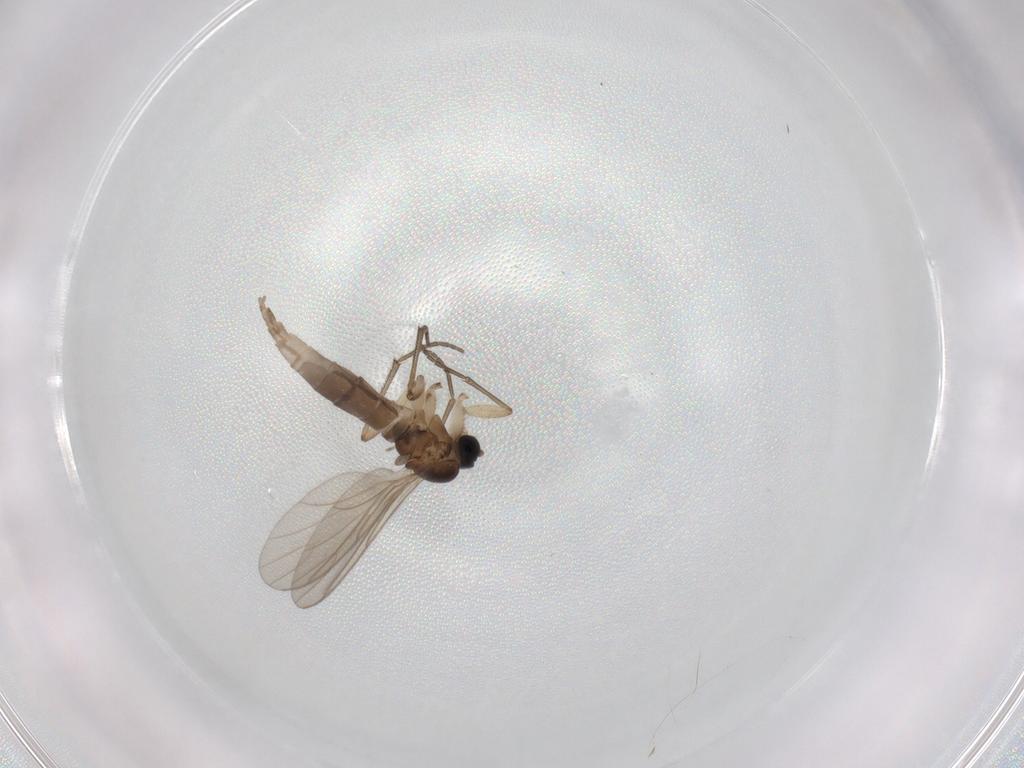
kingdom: Animalia
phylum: Arthropoda
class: Insecta
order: Diptera
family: Sciaridae
